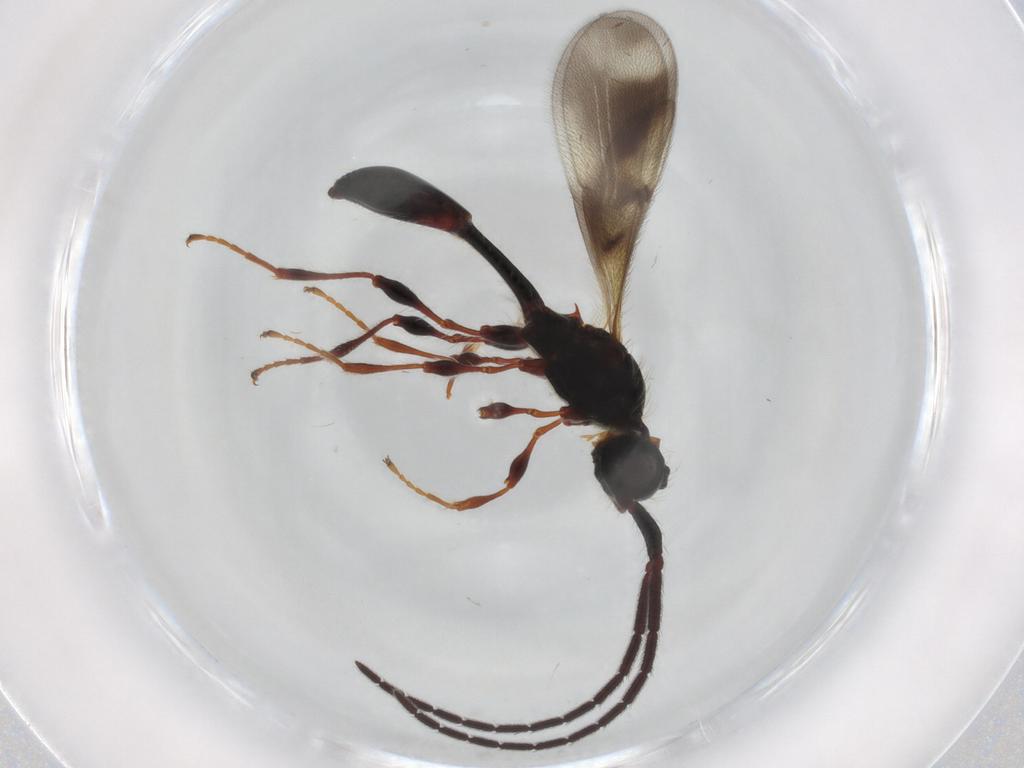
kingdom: Animalia
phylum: Arthropoda
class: Insecta
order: Hymenoptera
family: Diapriidae
